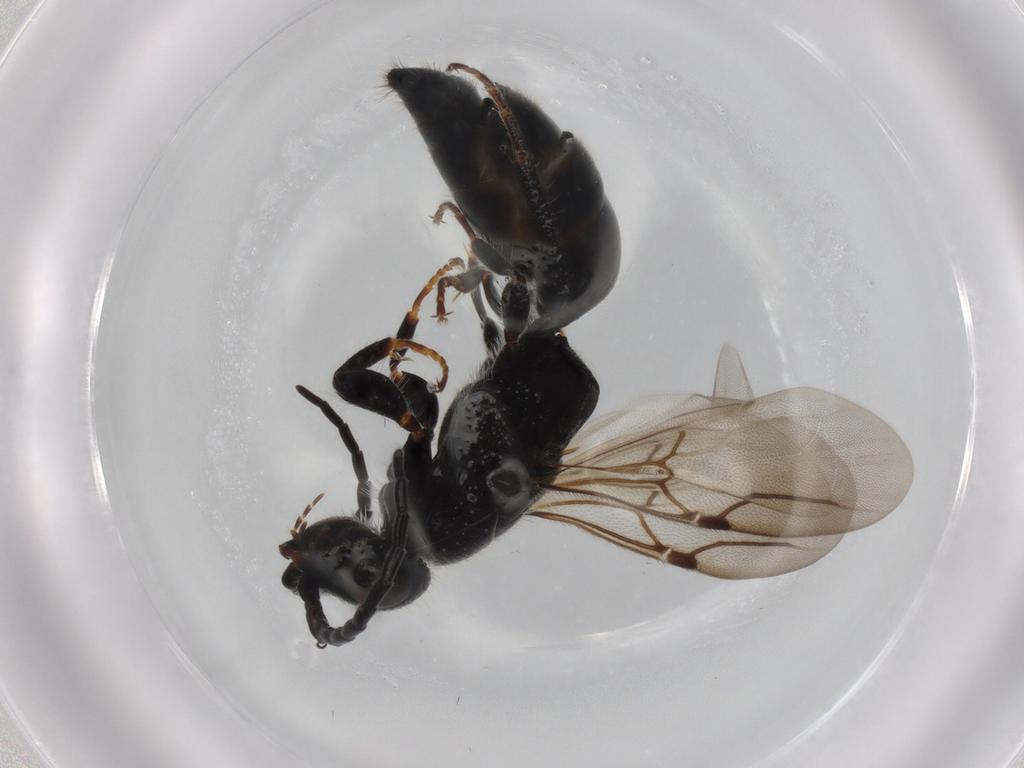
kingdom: Animalia
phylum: Arthropoda
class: Insecta
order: Hymenoptera
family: Bethylidae
